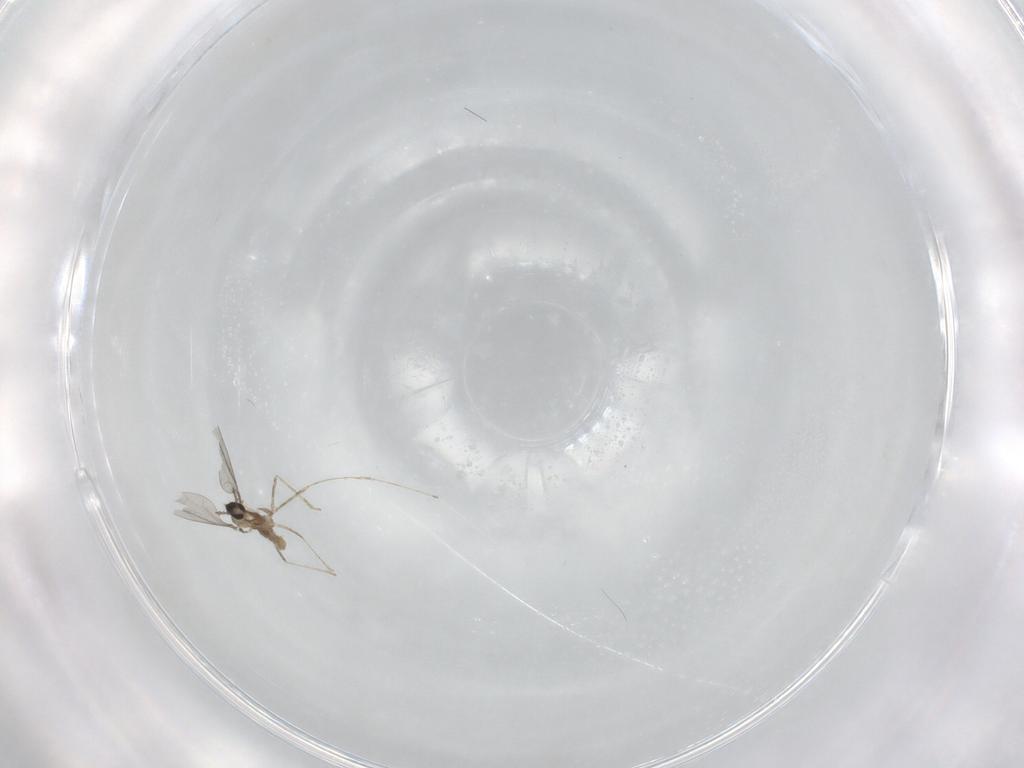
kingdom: Animalia
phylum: Arthropoda
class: Insecta
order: Diptera
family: Cecidomyiidae
